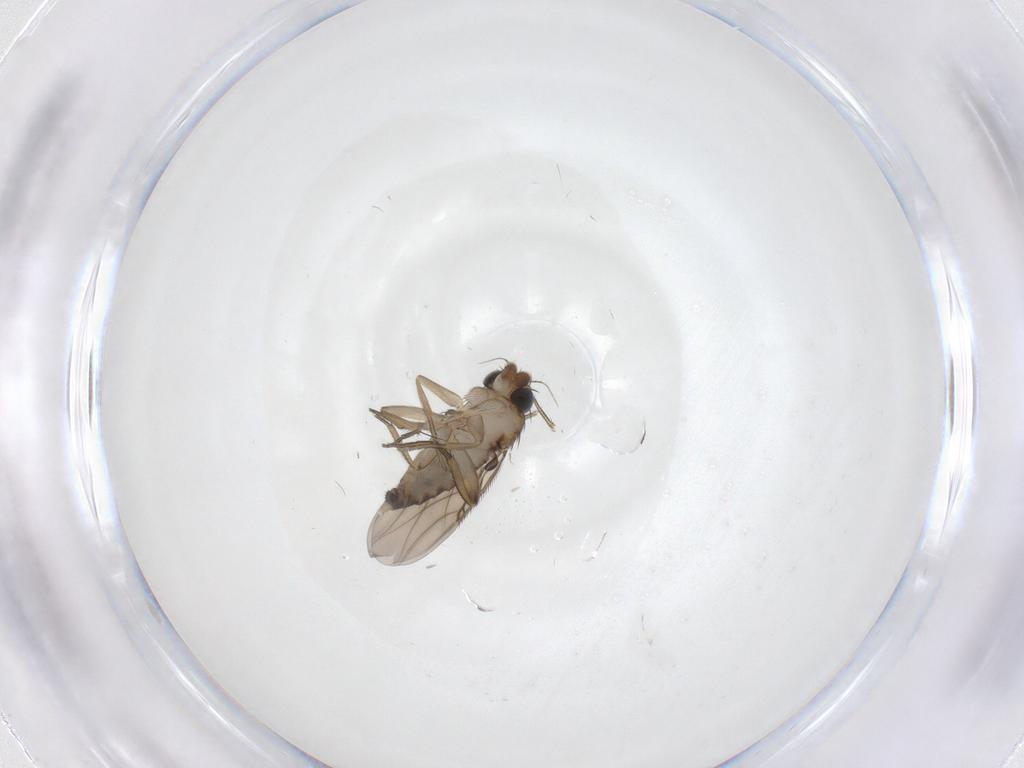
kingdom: Animalia
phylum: Arthropoda
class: Insecta
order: Diptera
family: Phoridae
